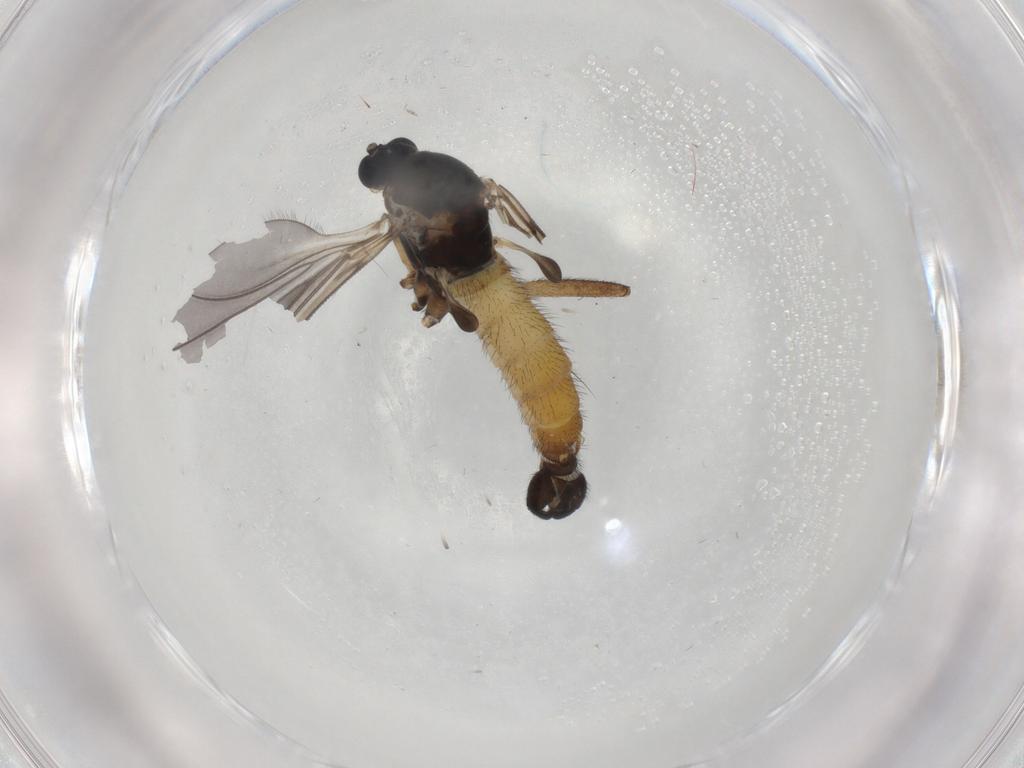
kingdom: Animalia
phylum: Arthropoda
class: Insecta
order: Diptera
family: Sciaridae
